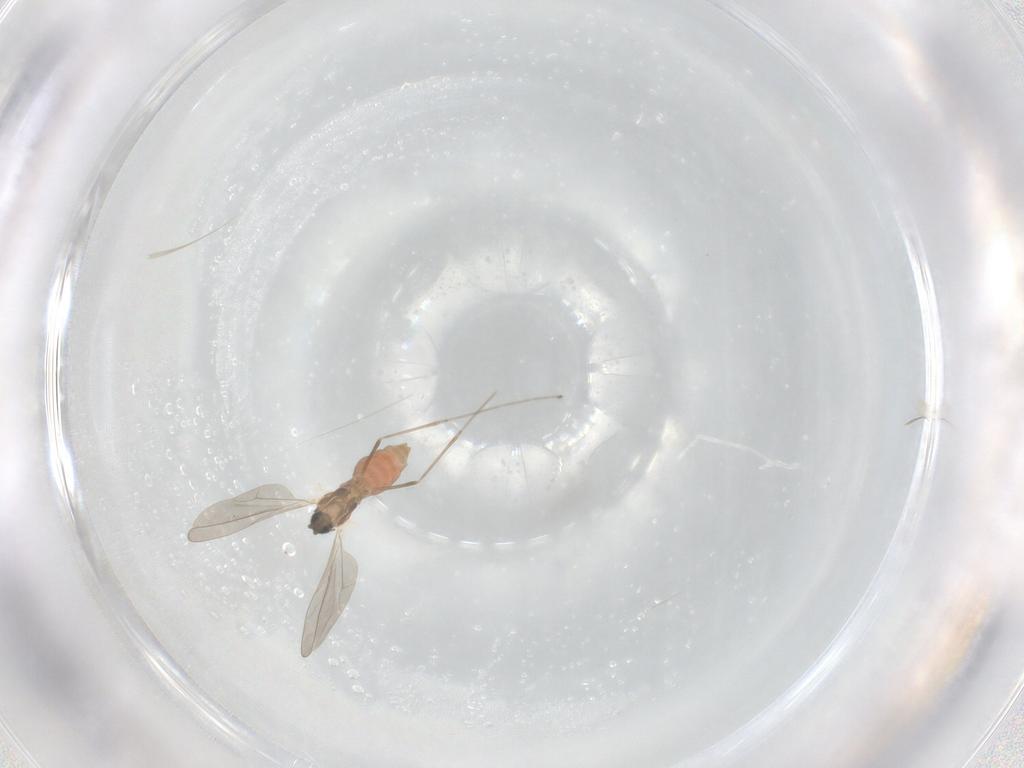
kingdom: Animalia
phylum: Arthropoda
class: Insecta
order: Diptera
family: Cecidomyiidae
